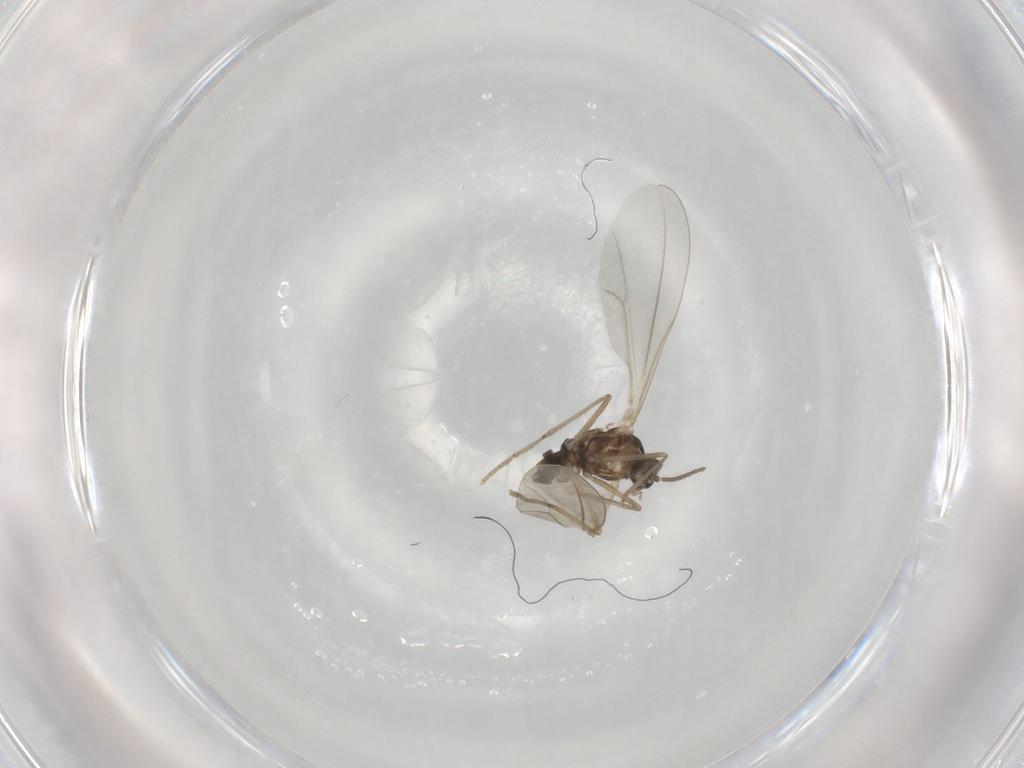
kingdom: Animalia
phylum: Arthropoda
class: Insecta
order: Diptera
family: Cecidomyiidae
